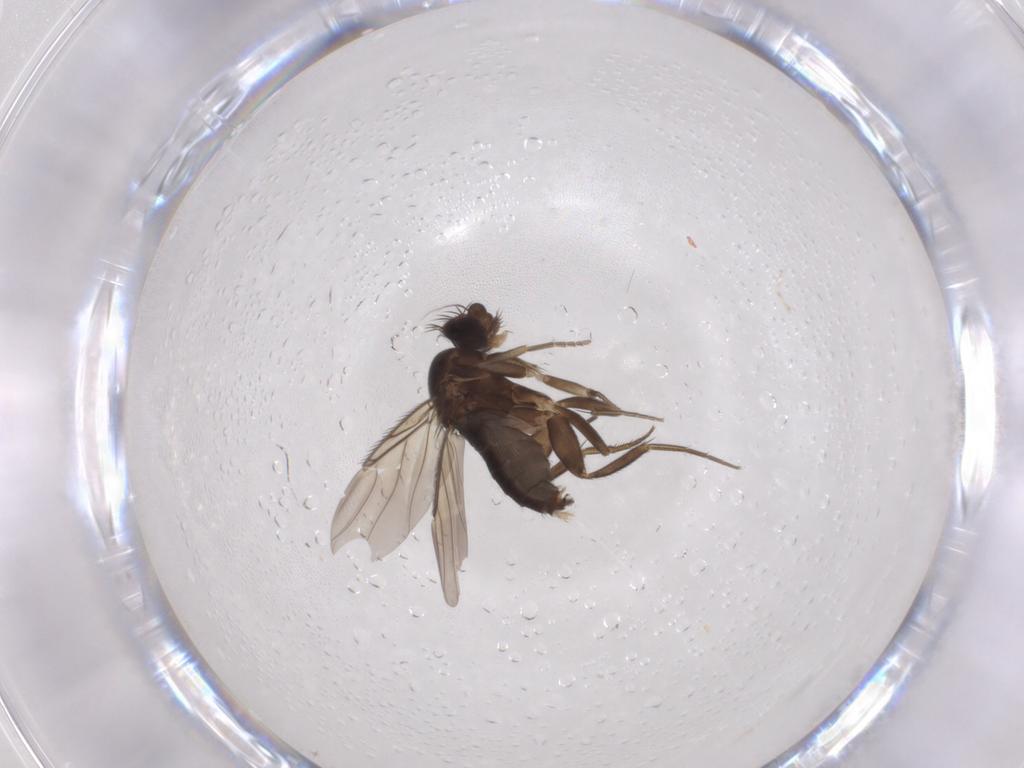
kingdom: Animalia
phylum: Arthropoda
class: Insecta
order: Diptera
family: Phoridae
